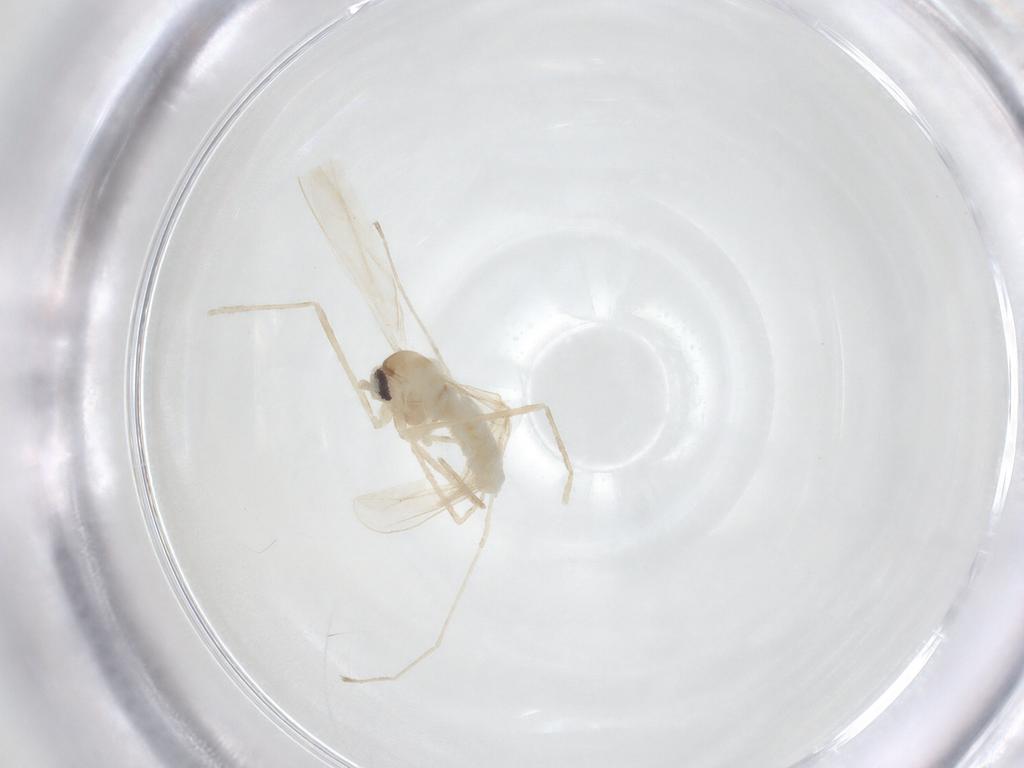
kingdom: Animalia
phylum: Arthropoda
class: Insecta
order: Diptera
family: Cecidomyiidae
